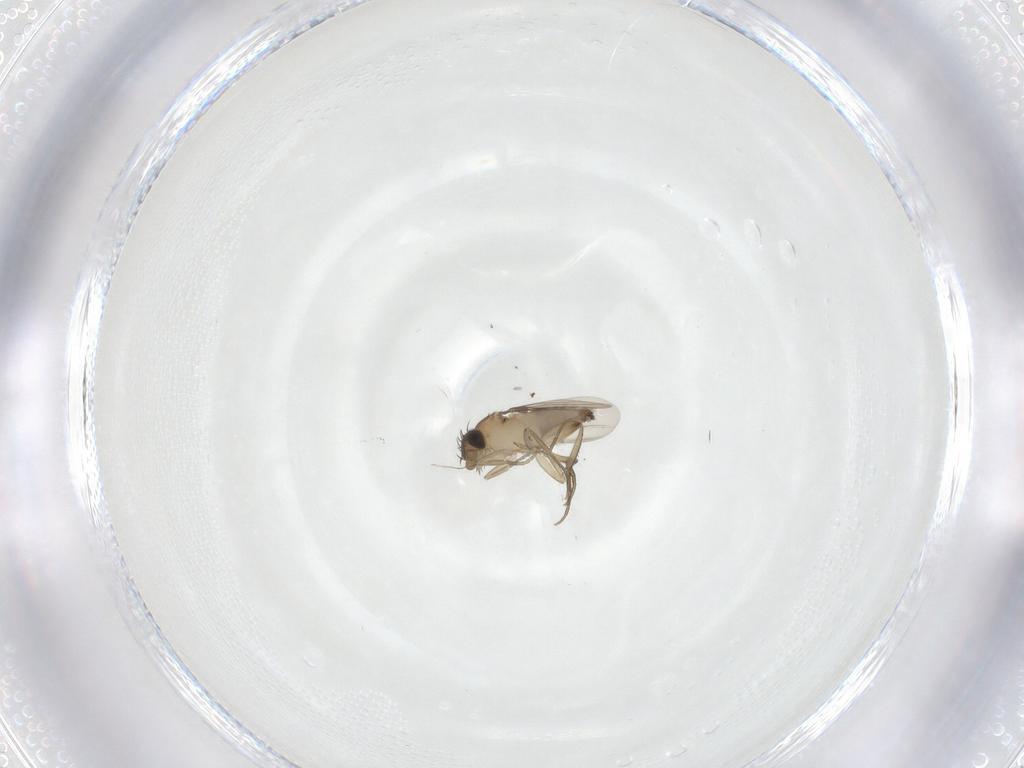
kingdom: Animalia
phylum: Arthropoda
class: Insecta
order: Diptera
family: Phoridae
